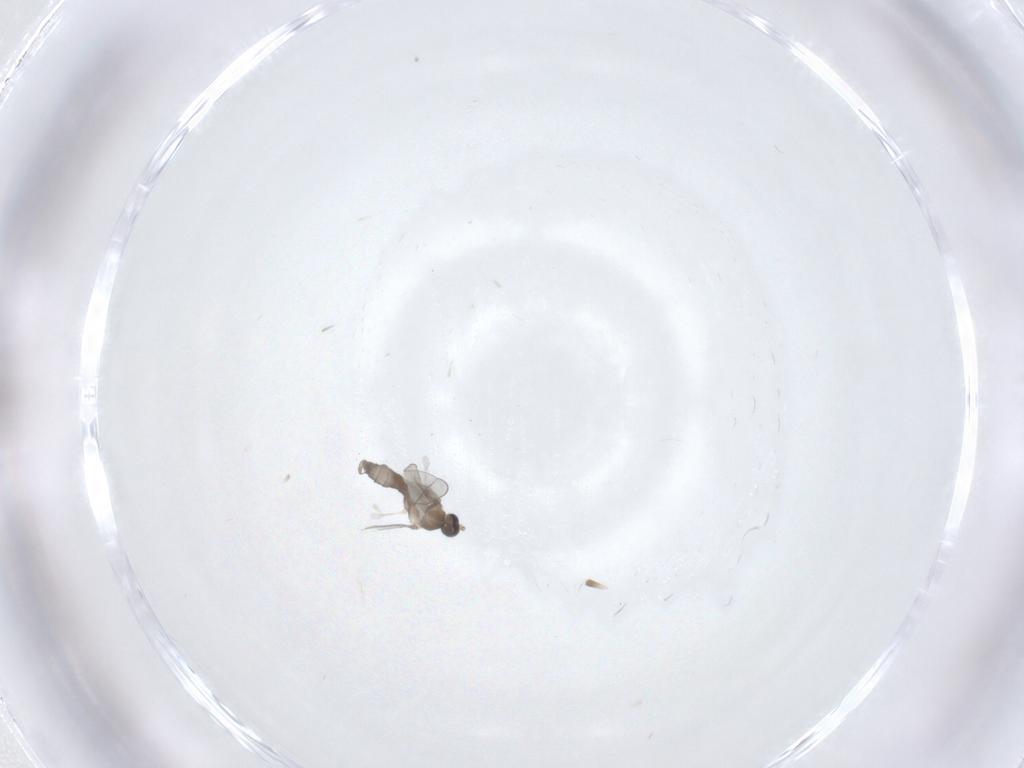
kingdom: Animalia
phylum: Arthropoda
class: Insecta
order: Diptera
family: Cecidomyiidae
